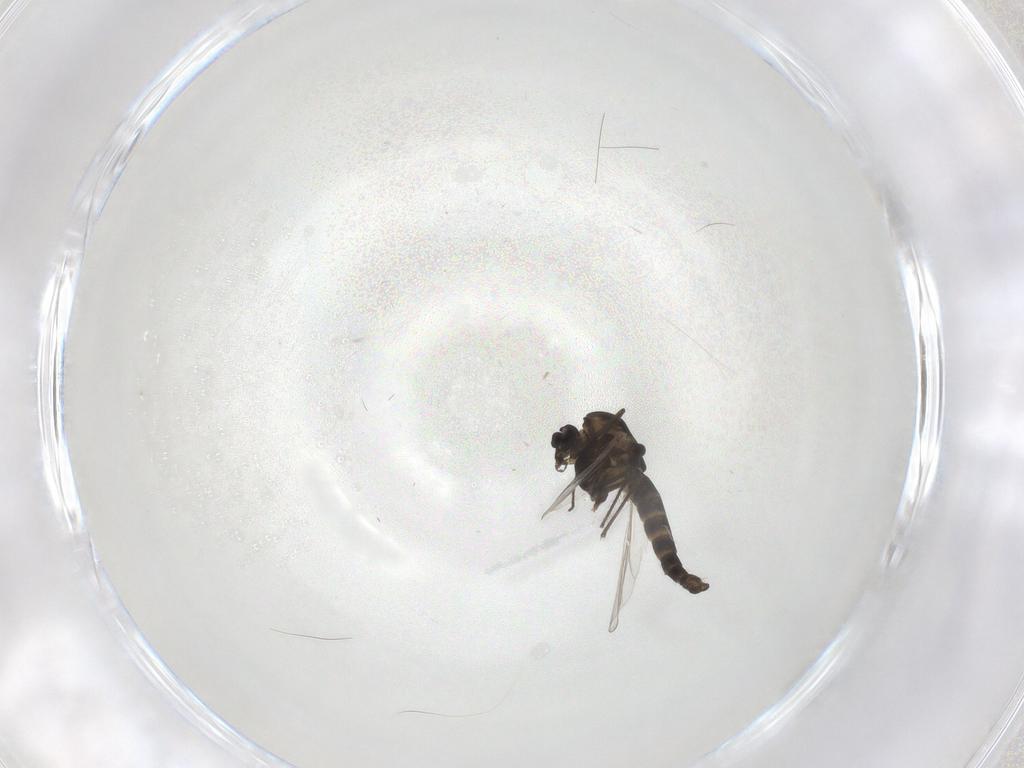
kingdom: Animalia
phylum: Arthropoda
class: Insecta
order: Diptera
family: Chironomidae
